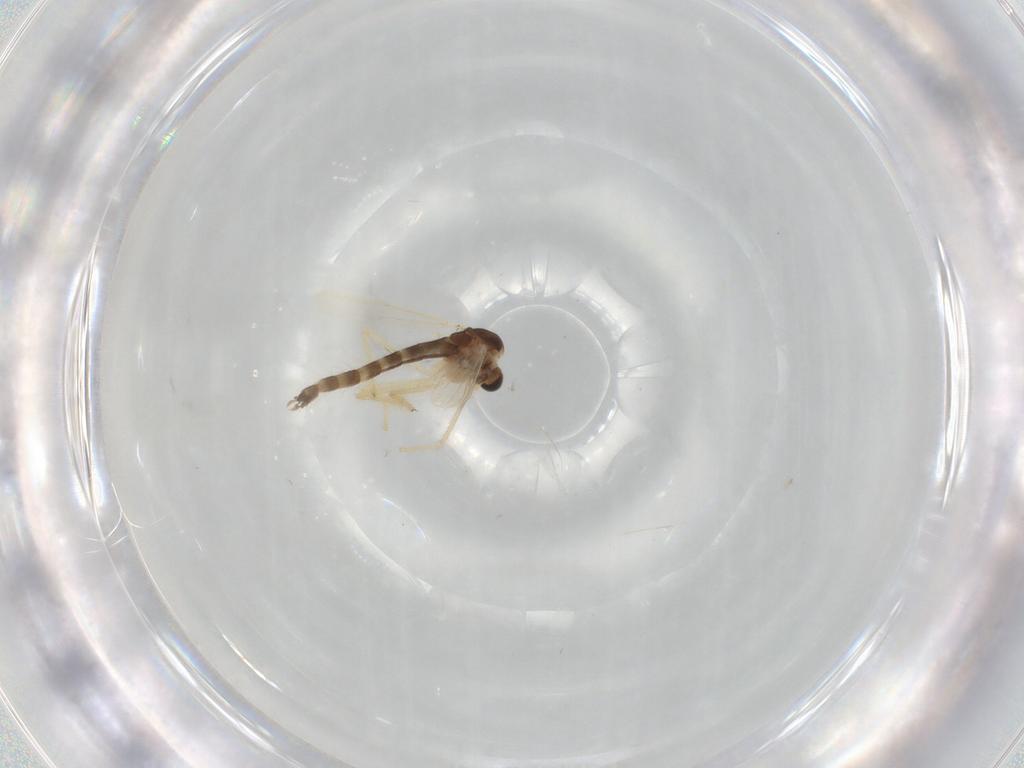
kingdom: Animalia
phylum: Arthropoda
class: Insecta
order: Diptera
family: Chironomidae
